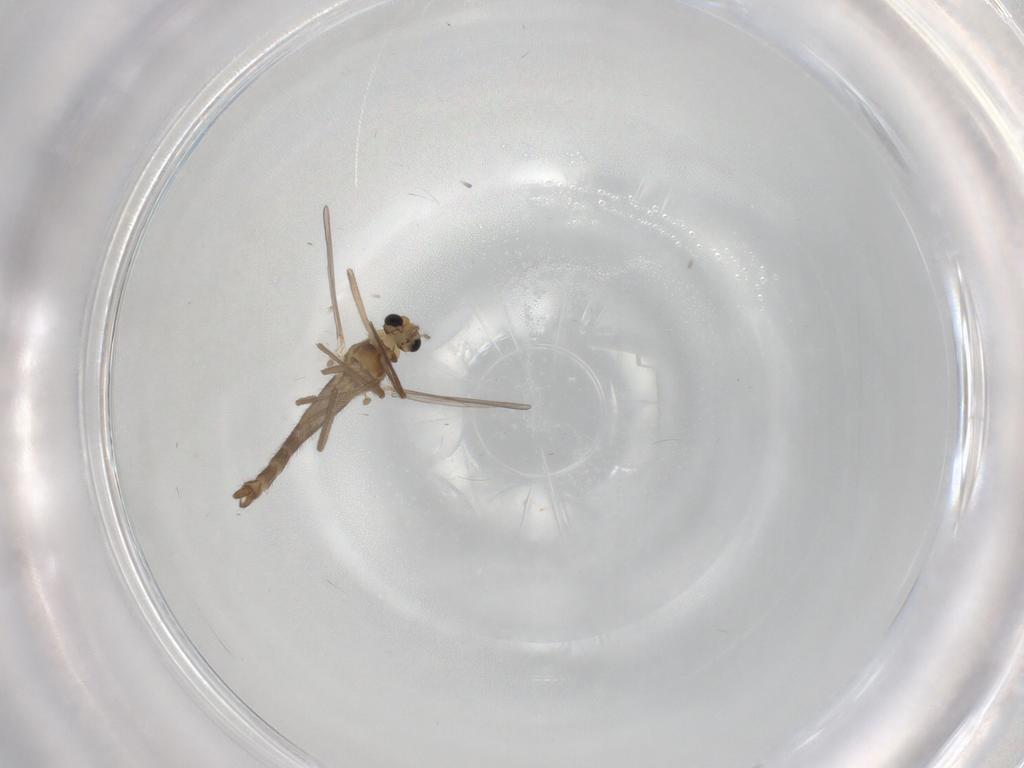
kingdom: Animalia
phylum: Arthropoda
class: Insecta
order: Diptera
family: Chironomidae
